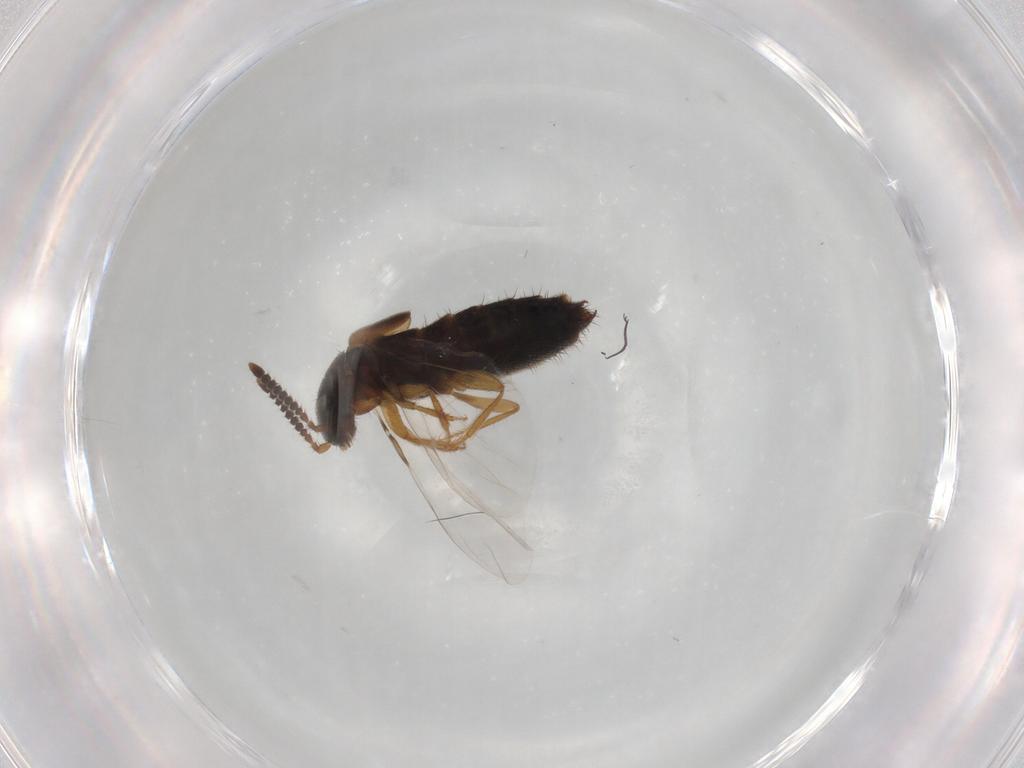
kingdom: Animalia
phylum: Arthropoda
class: Insecta
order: Coleoptera
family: Staphylinidae
